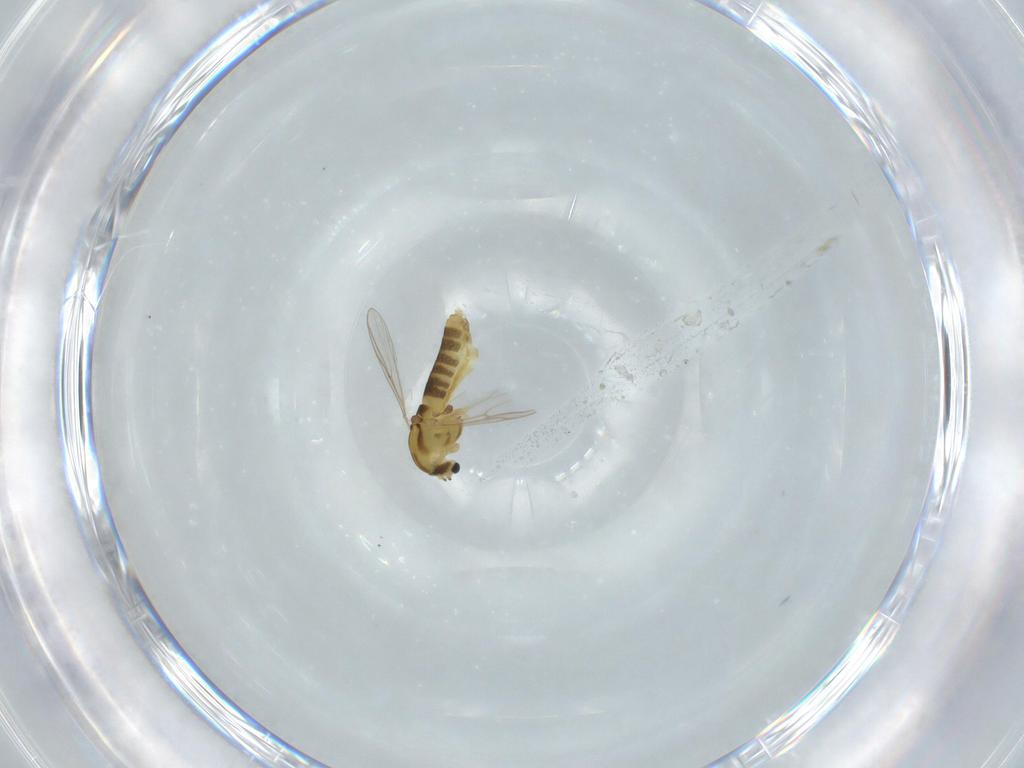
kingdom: Animalia
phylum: Arthropoda
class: Insecta
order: Diptera
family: Chironomidae
